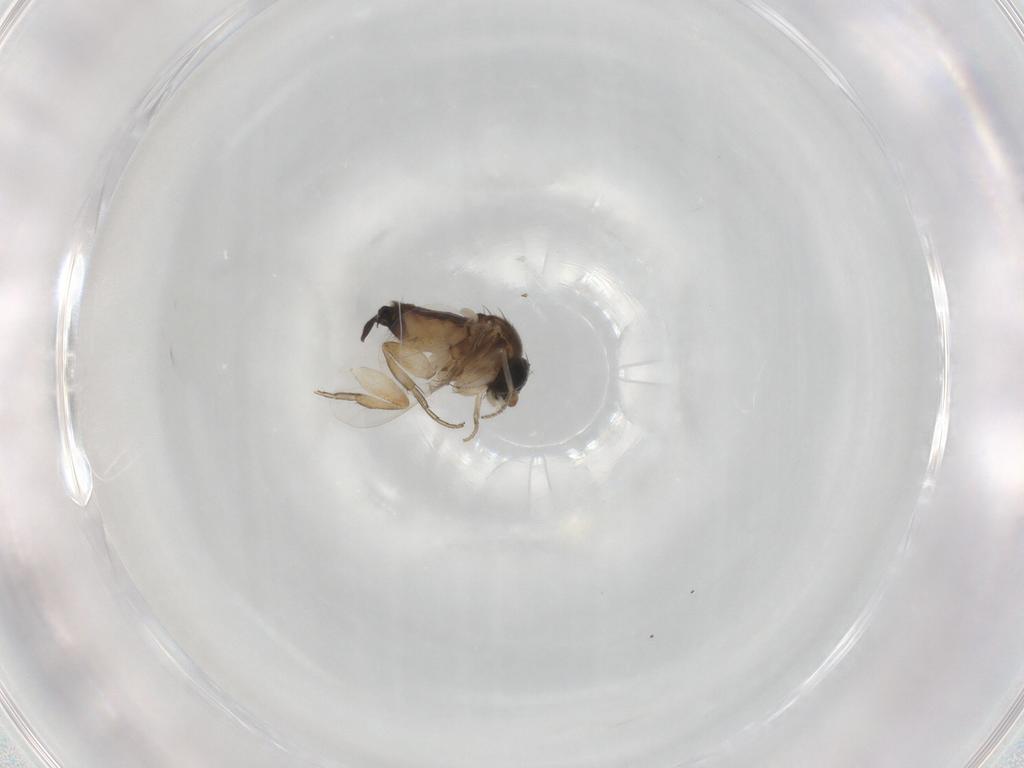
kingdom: Animalia
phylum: Arthropoda
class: Insecta
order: Diptera
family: Phoridae
